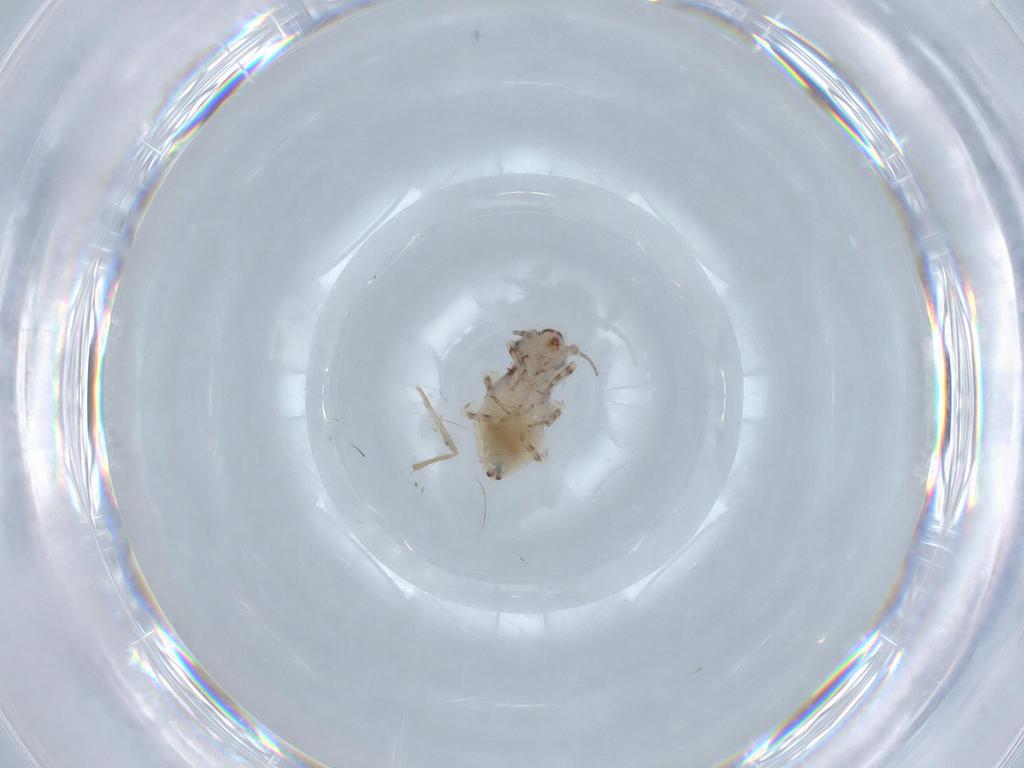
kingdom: Animalia
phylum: Arthropoda
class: Insecta
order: Psocodea
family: Lepidopsocidae
